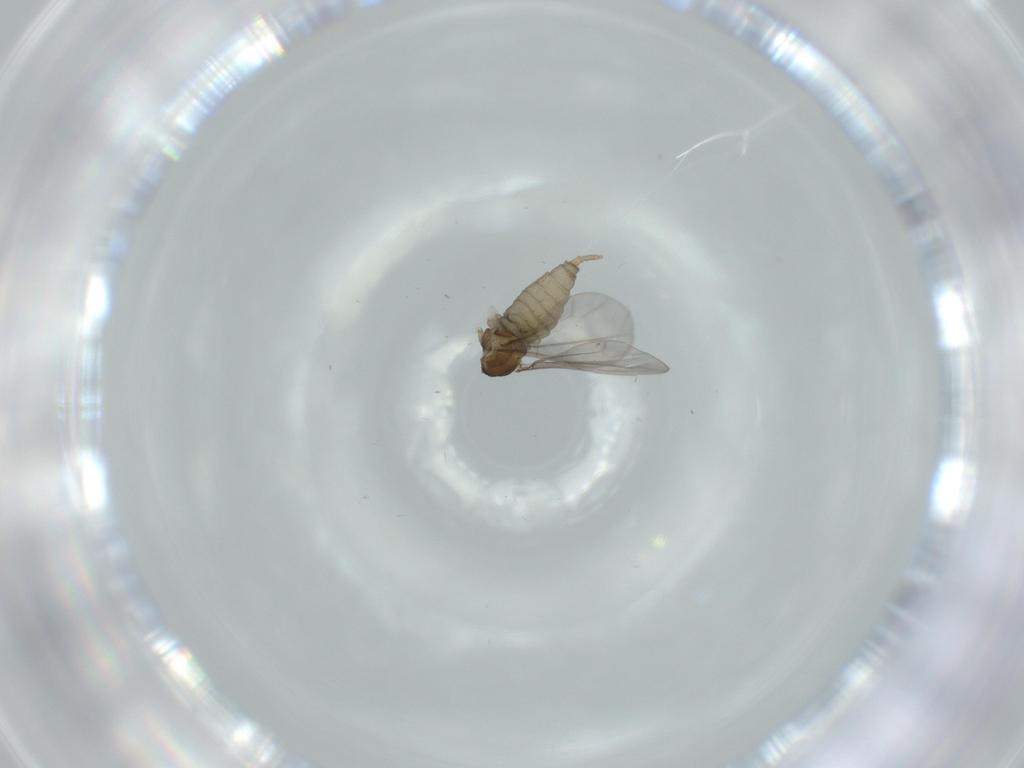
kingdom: Animalia
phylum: Arthropoda
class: Insecta
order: Diptera
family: Cecidomyiidae
